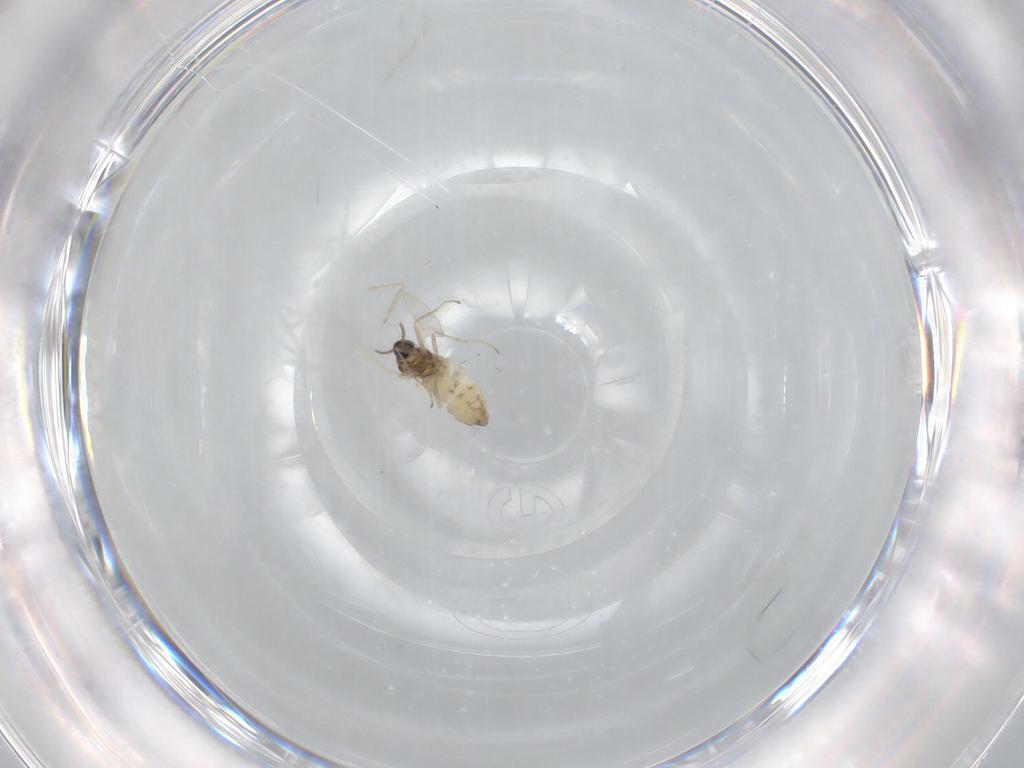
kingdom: Animalia
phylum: Arthropoda
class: Insecta
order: Diptera
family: Cecidomyiidae
